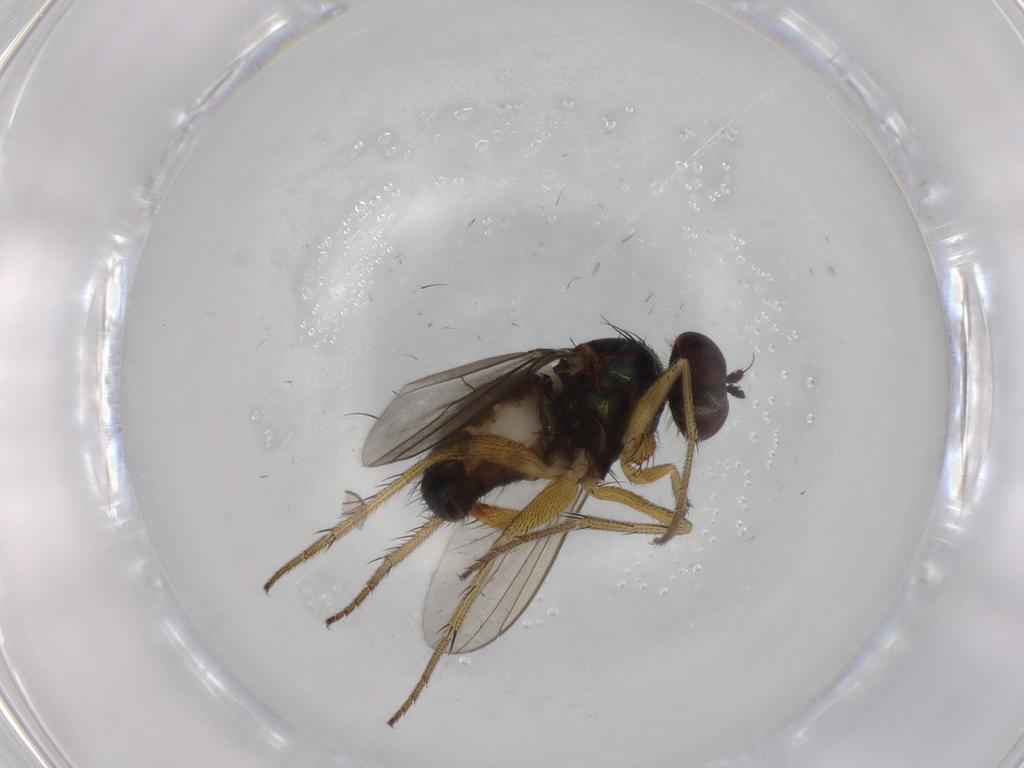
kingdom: Animalia
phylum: Arthropoda
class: Insecta
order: Diptera
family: Dolichopodidae
